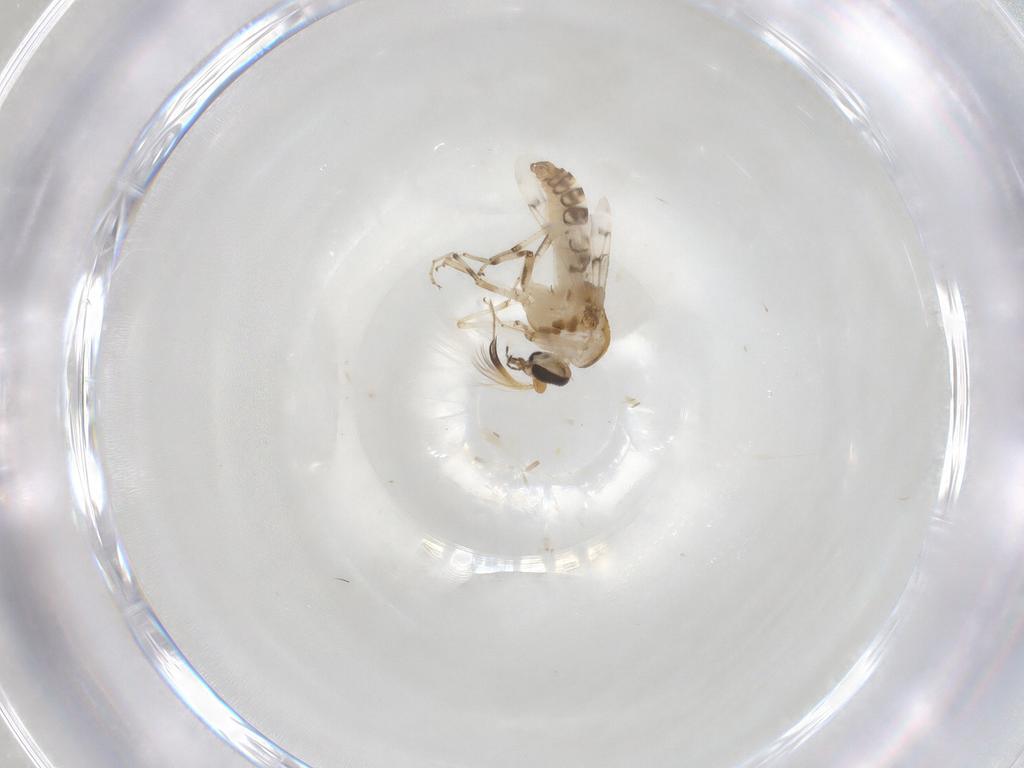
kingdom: Animalia
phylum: Arthropoda
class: Insecta
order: Diptera
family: Ceratopogonidae
